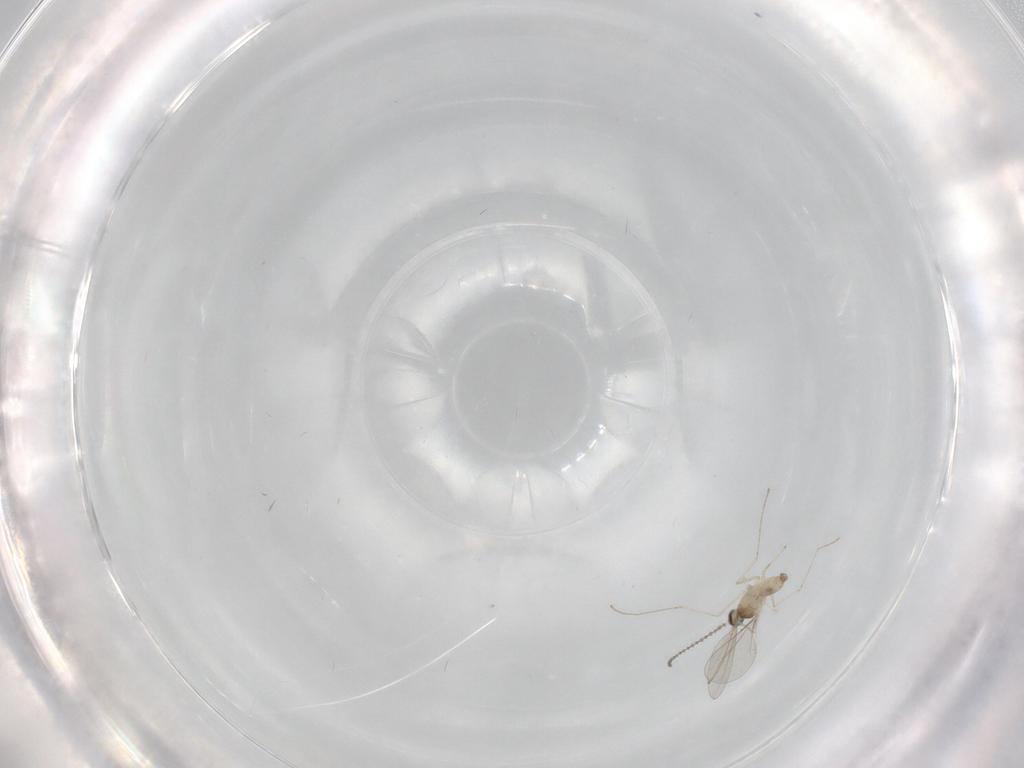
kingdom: Animalia
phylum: Arthropoda
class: Insecta
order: Diptera
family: Cecidomyiidae
